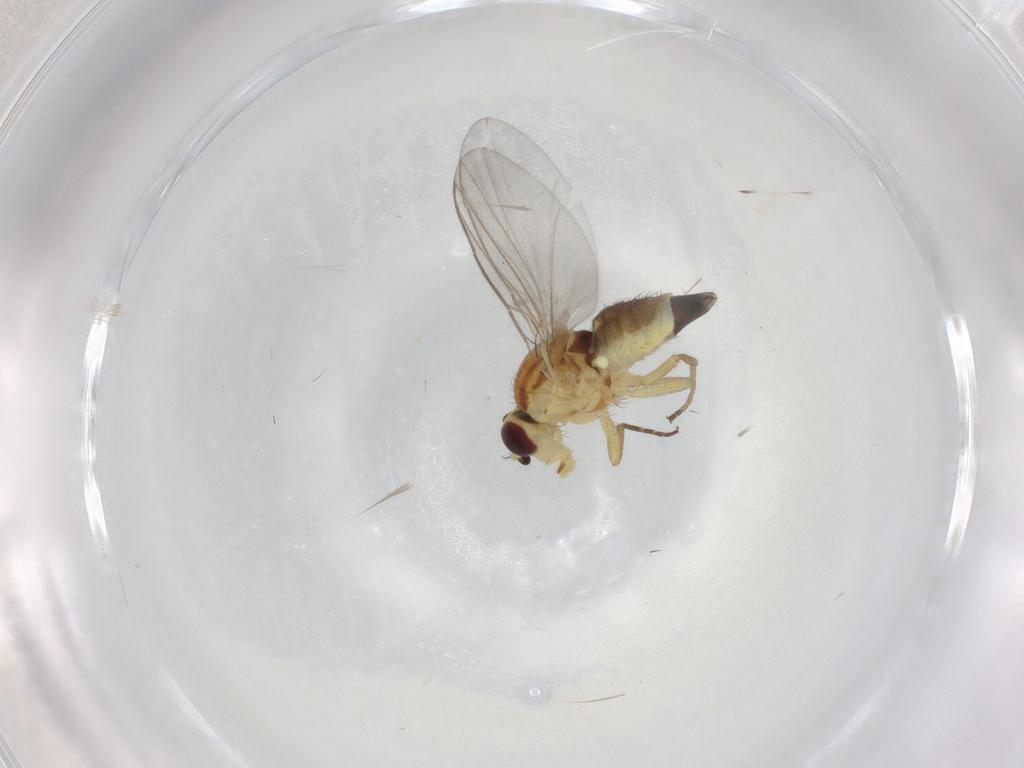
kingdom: Animalia
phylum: Arthropoda
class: Insecta
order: Diptera
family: Agromyzidae
